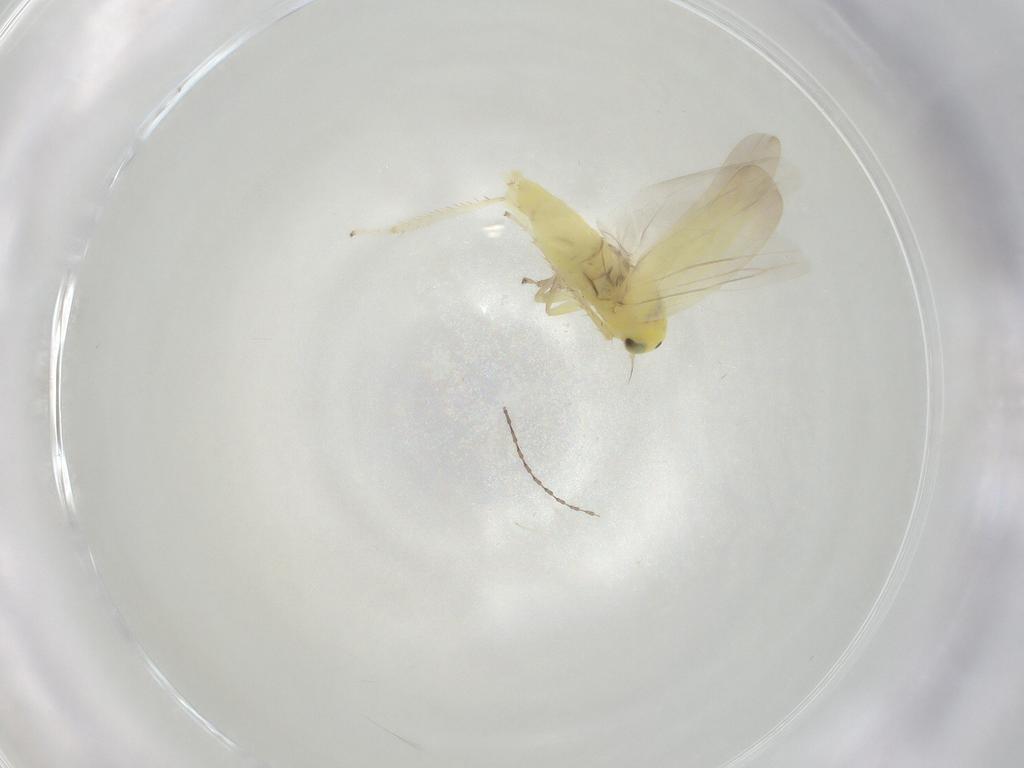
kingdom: Animalia
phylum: Arthropoda
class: Insecta
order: Hemiptera
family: Cicadellidae
